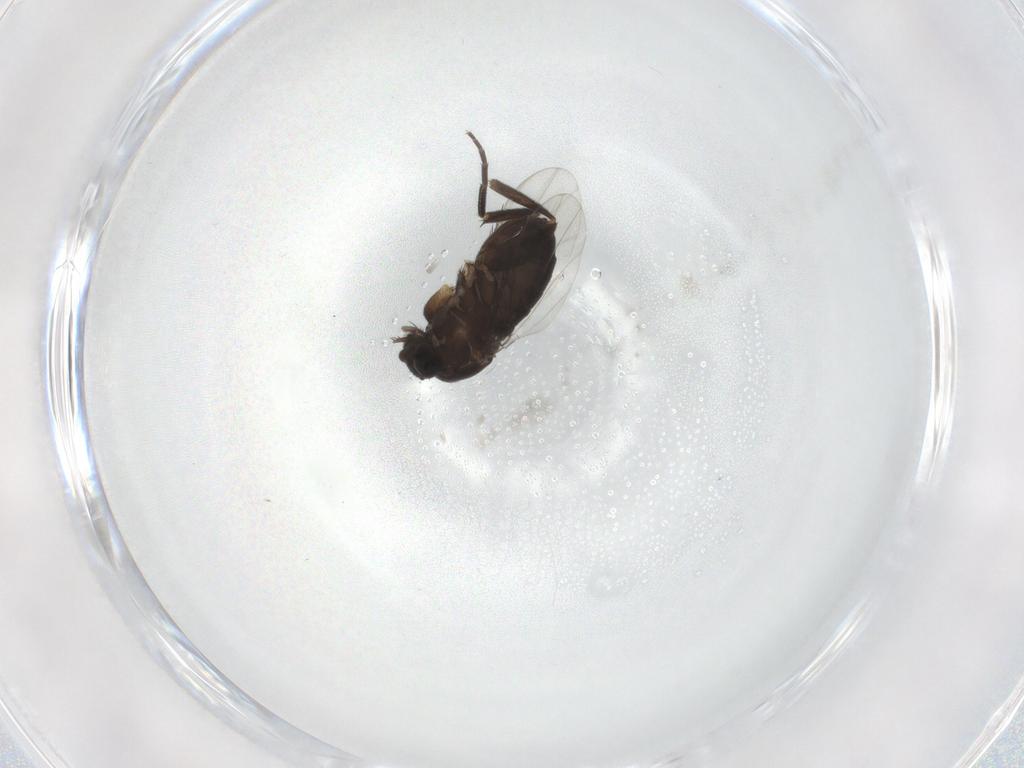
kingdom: Animalia
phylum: Arthropoda
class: Insecta
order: Diptera
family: Phoridae
